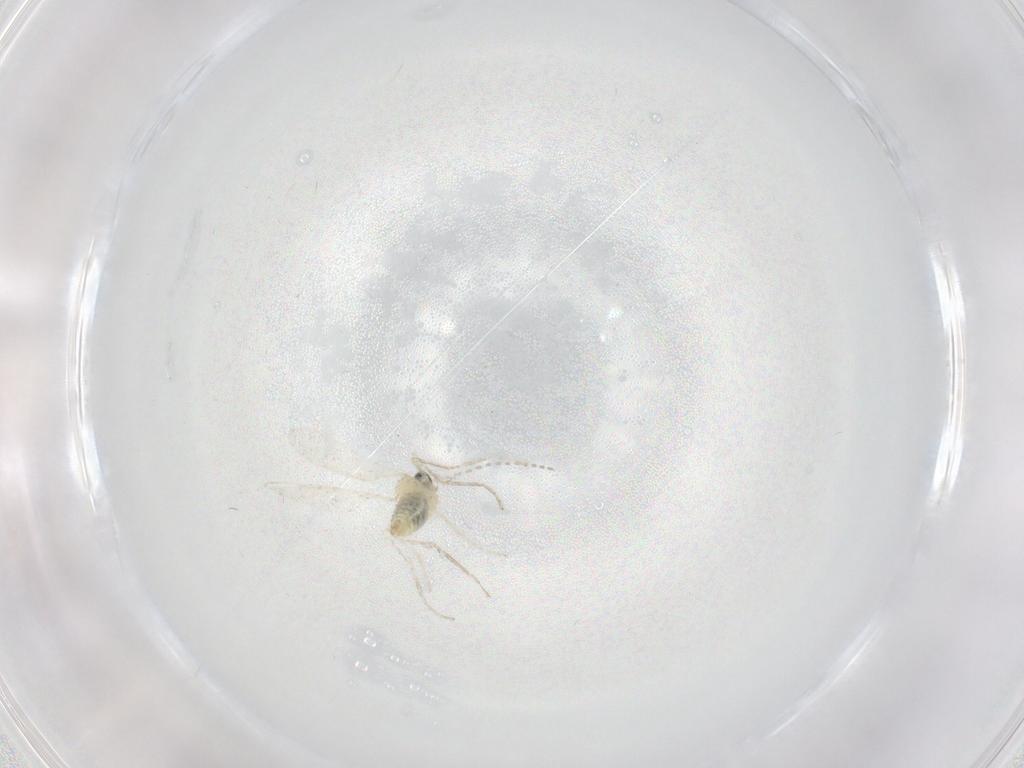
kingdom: Animalia
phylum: Arthropoda
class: Insecta
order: Diptera
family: Cecidomyiidae
